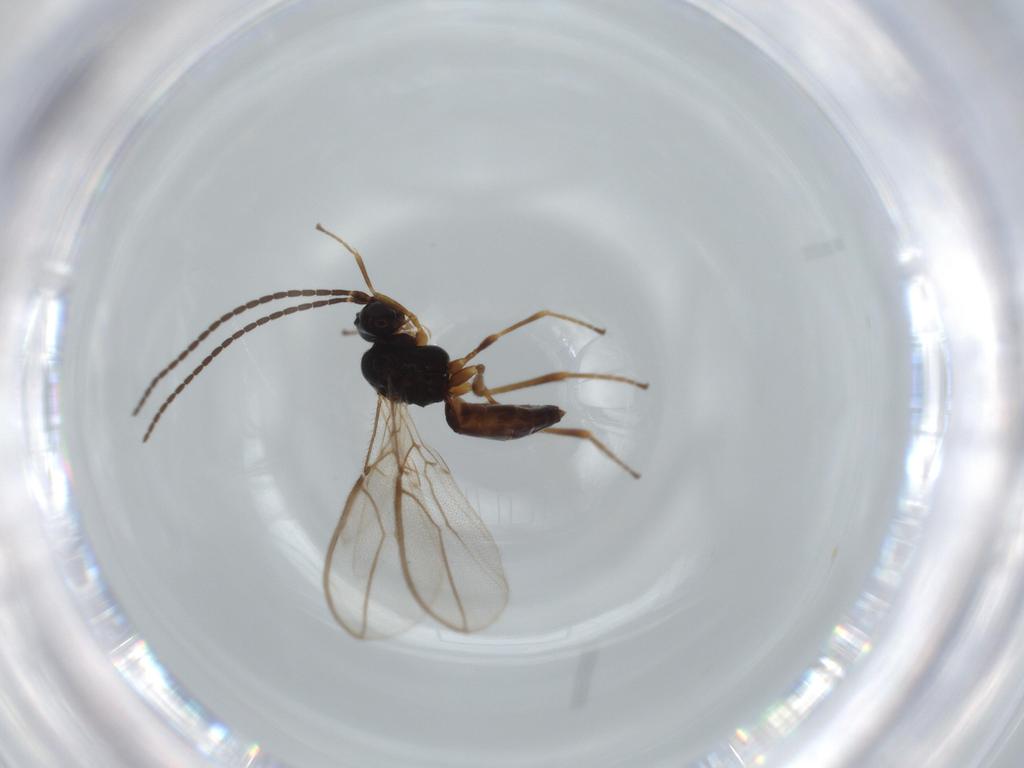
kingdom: Animalia
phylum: Arthropoda
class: Insecta
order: Hymenoptera
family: Braconidae
